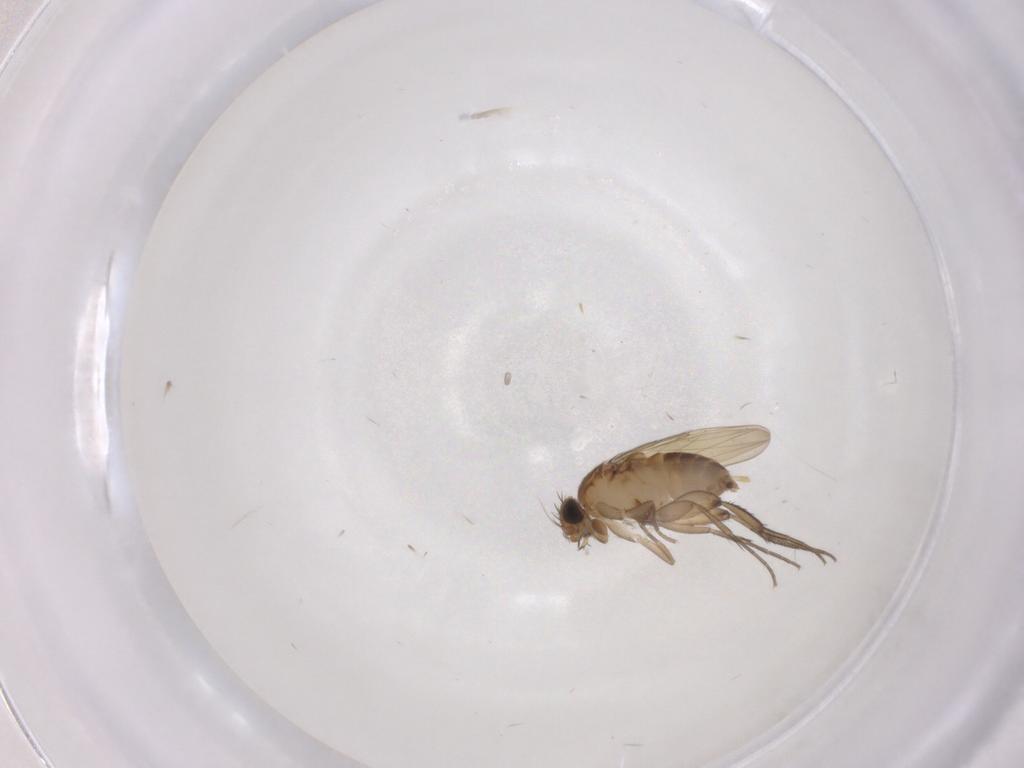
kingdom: Animalia
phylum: Arthropoda
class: Insecta
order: Diptera
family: Phoridae
